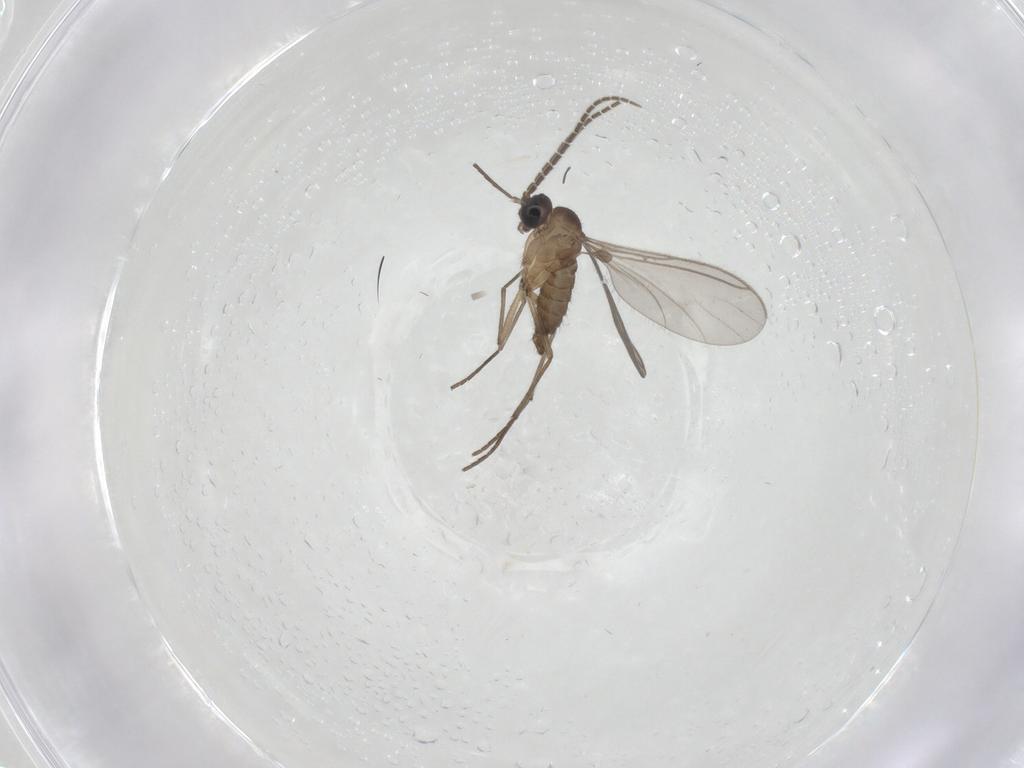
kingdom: Animalia
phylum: Arthropoda
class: Insecta
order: Diptera
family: Sciaridae
